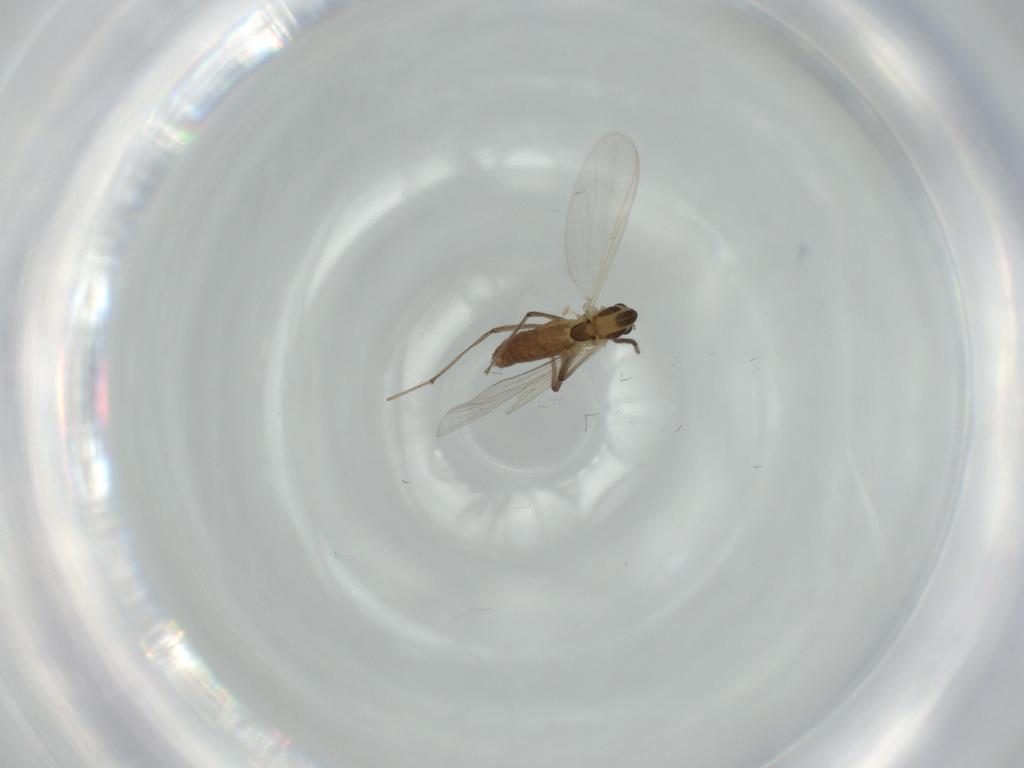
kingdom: Animalia
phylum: Arthropoda
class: Insecta
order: Diptera
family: Chironomidae
